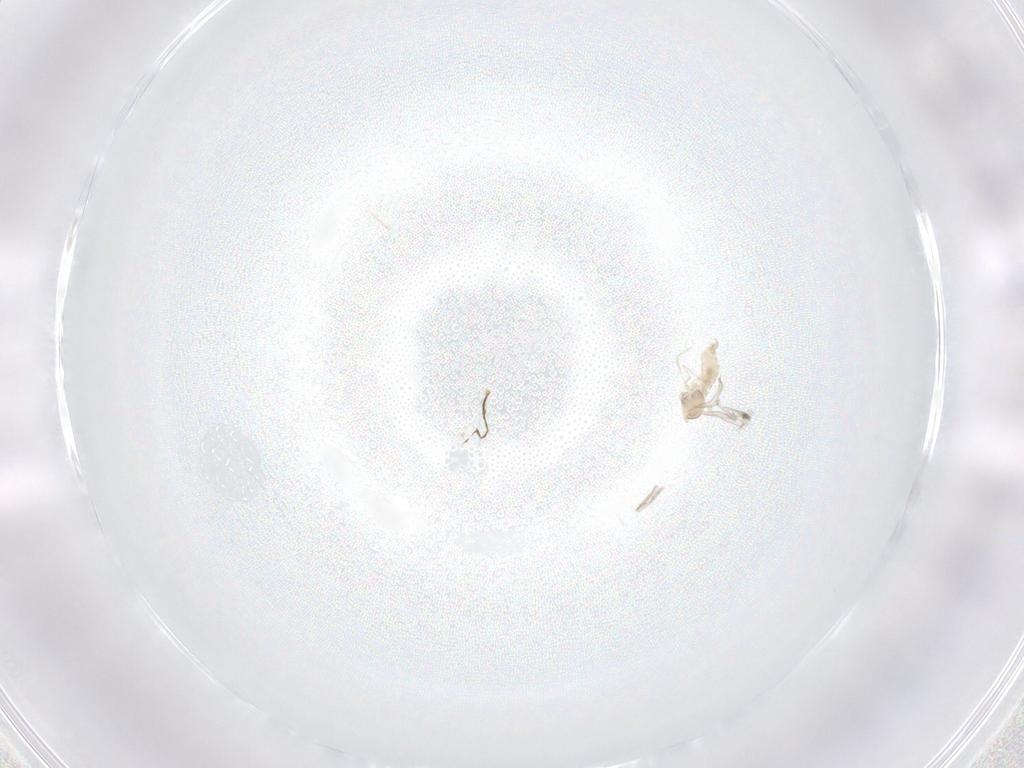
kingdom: Animalia
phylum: Arthropoda
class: Insecta
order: Diptera
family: Cecidomyiidae
